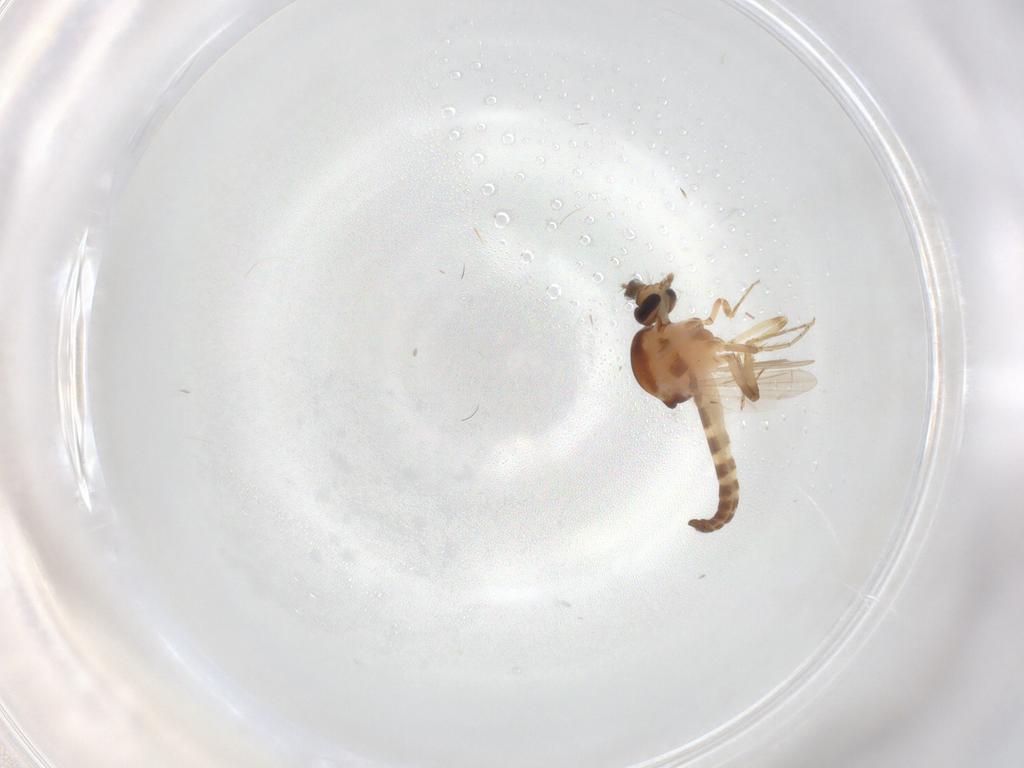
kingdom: Animalia
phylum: Arthropoda
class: Insecta
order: Diptera
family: Ceratopogonidae
